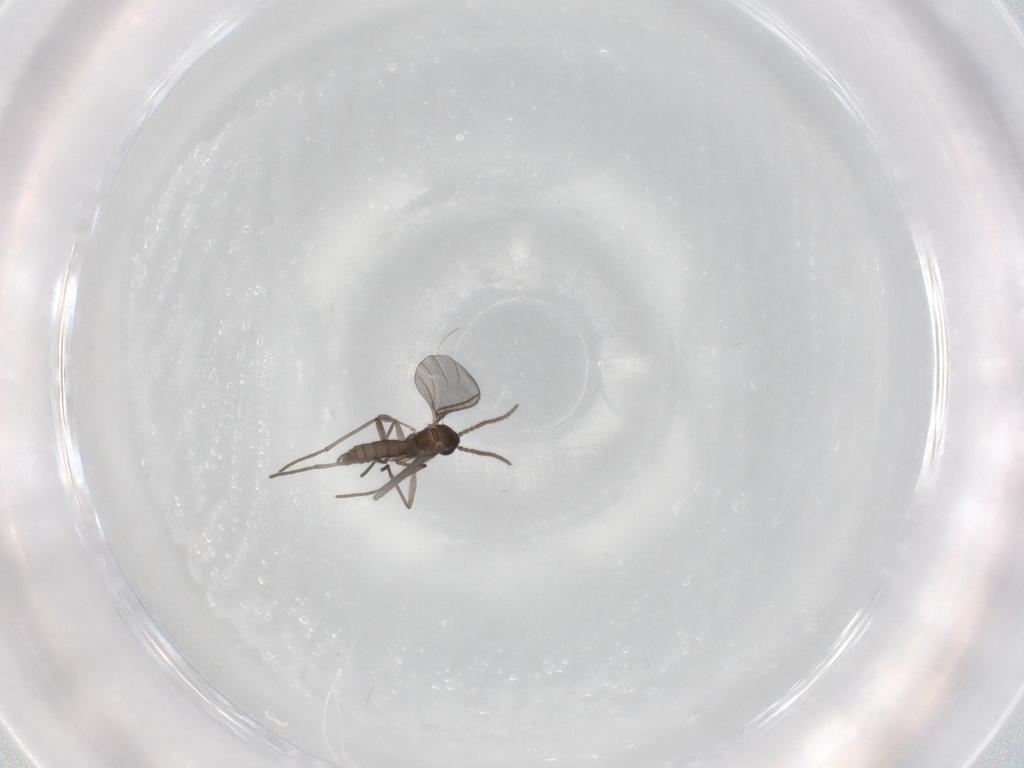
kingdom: Animalia
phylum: Arthropoda
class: Insecta
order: Diptera
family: Sciaridae
